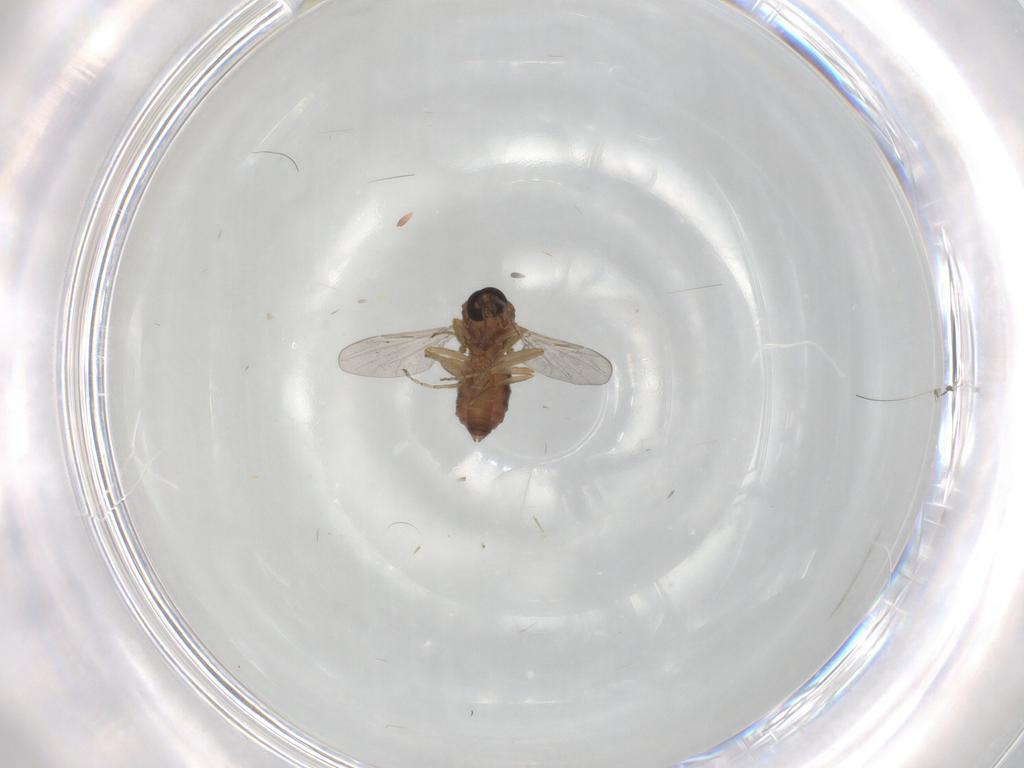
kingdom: Animalia
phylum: Arthropoda
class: Insecta
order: Diptera
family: Ceratopogonidae
